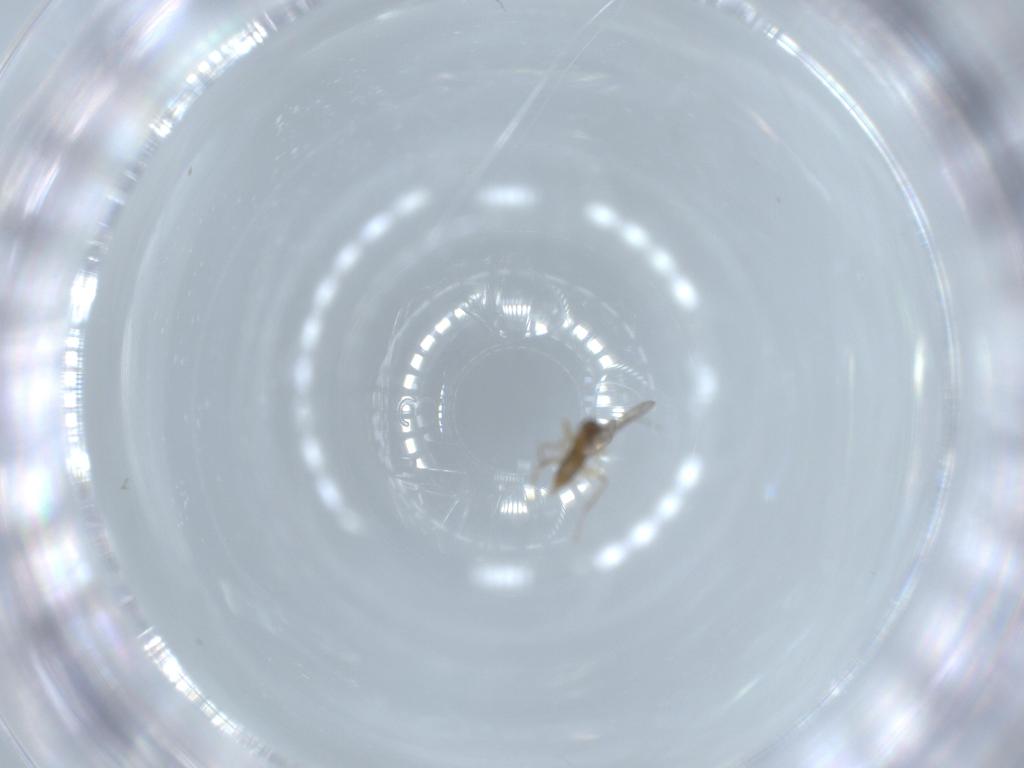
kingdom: Animalia
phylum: Arthropoda
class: Insecta
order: Diptera
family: Cecidomyiidae
